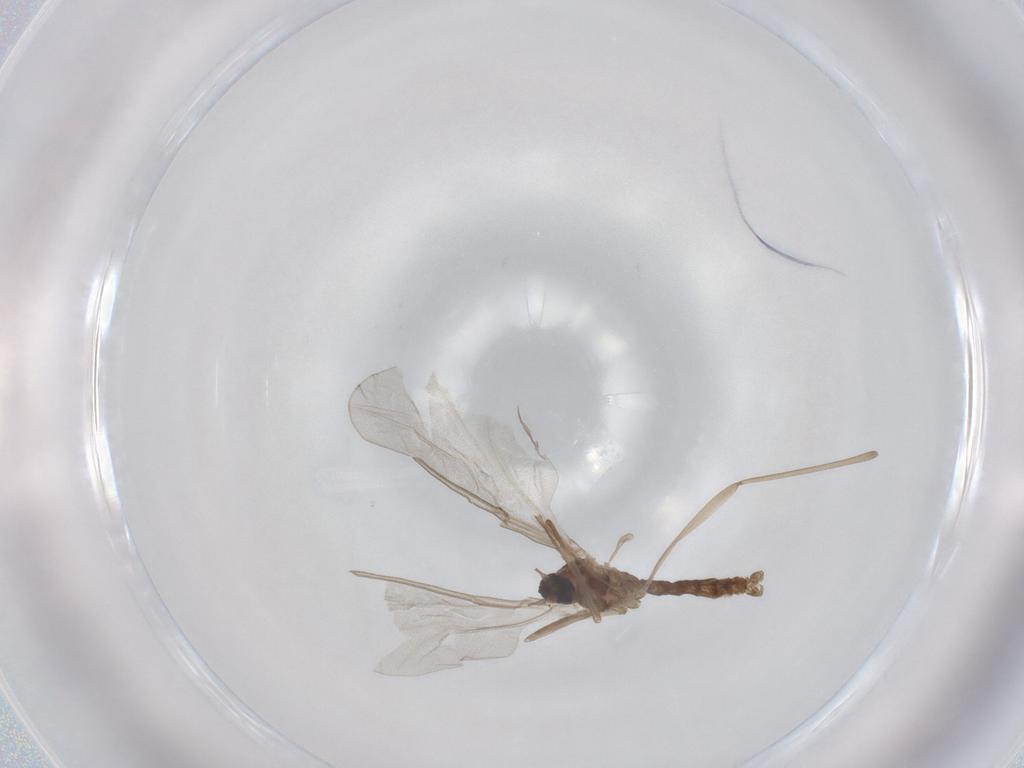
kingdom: Animalia
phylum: Arthropoda
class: Insecta
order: Diptera
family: Cecidomyiidae
